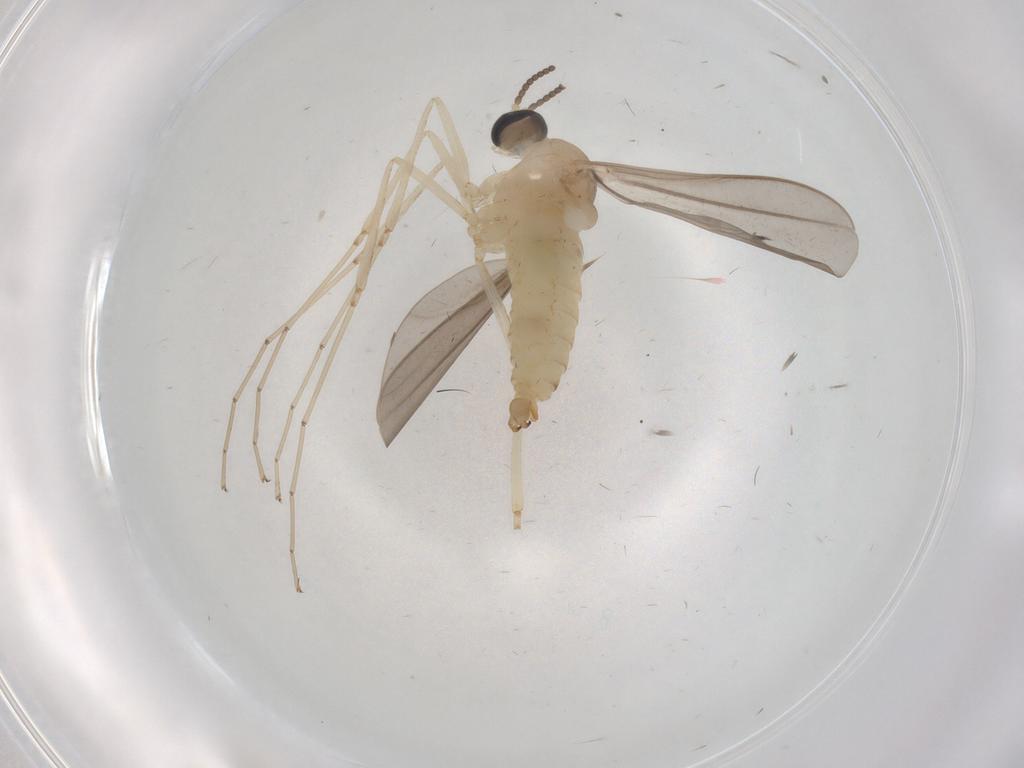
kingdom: Animalia
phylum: Arthropoda
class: Insecta
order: Diptera
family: Cecidomyiidae
